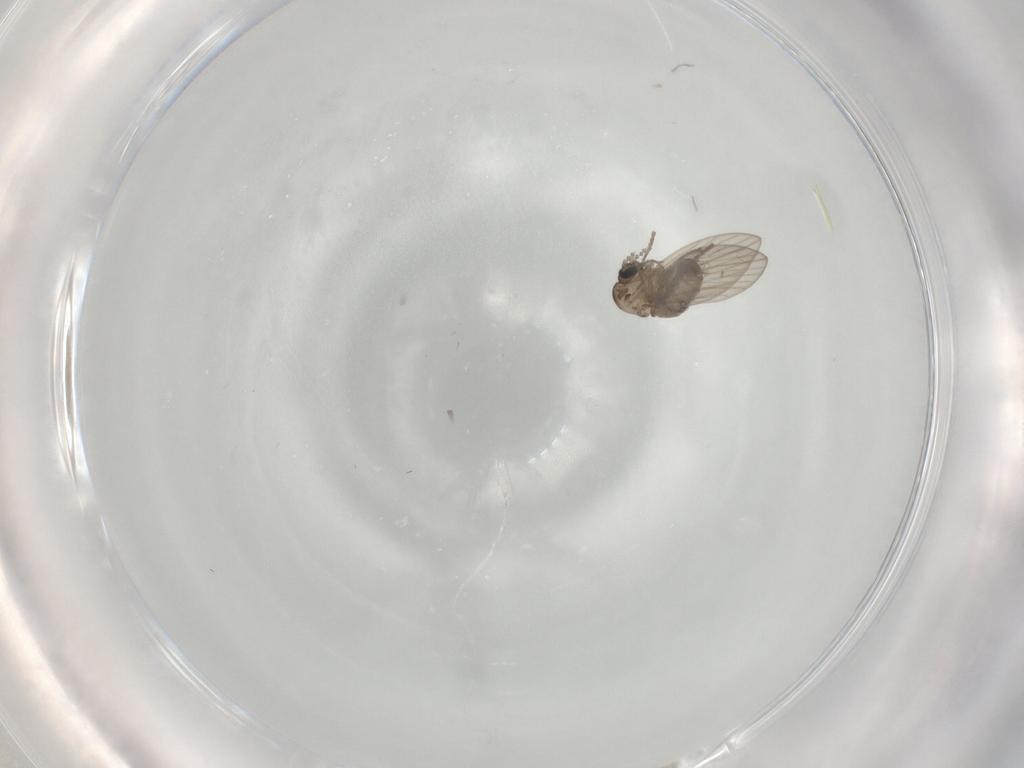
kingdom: Animalia
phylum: Arthropoda
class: Insecta
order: Diptera
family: Psychodidae
